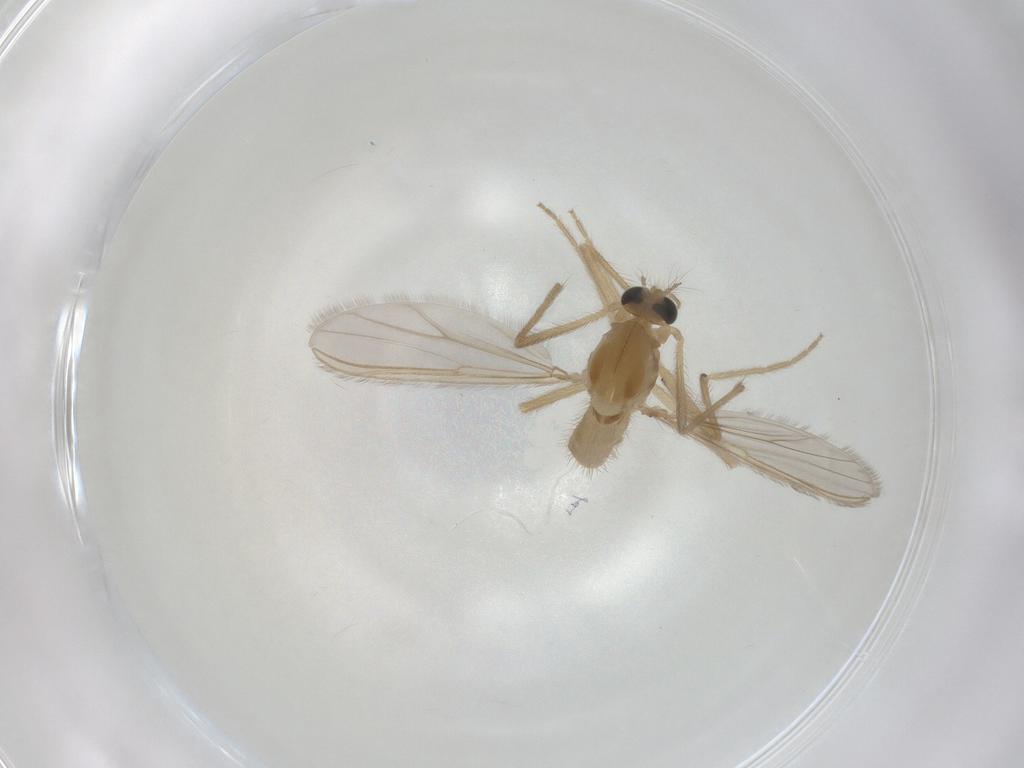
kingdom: Animalia
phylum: Arthropoda
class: Insecta
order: Diptera
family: Chironomidae
